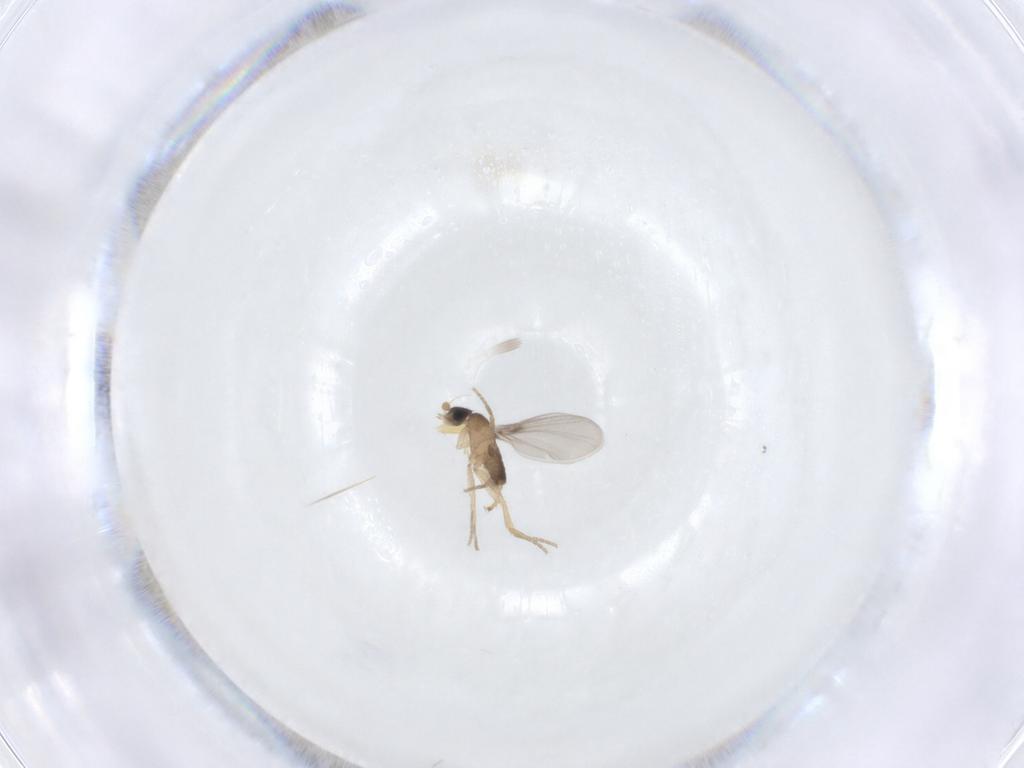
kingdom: Animalia
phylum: Arthropoda
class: Insecta
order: Diptera
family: Periscelididae
